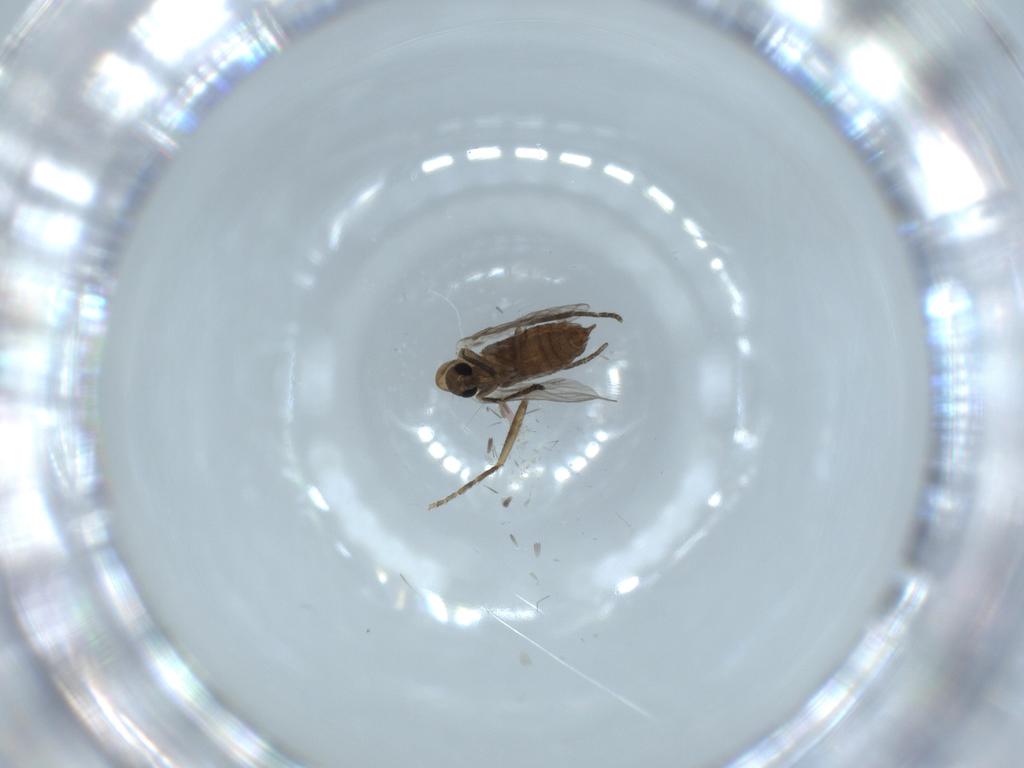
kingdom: Animalia
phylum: Arthropoda
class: Insecta
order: Diptera
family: Psychodidae
